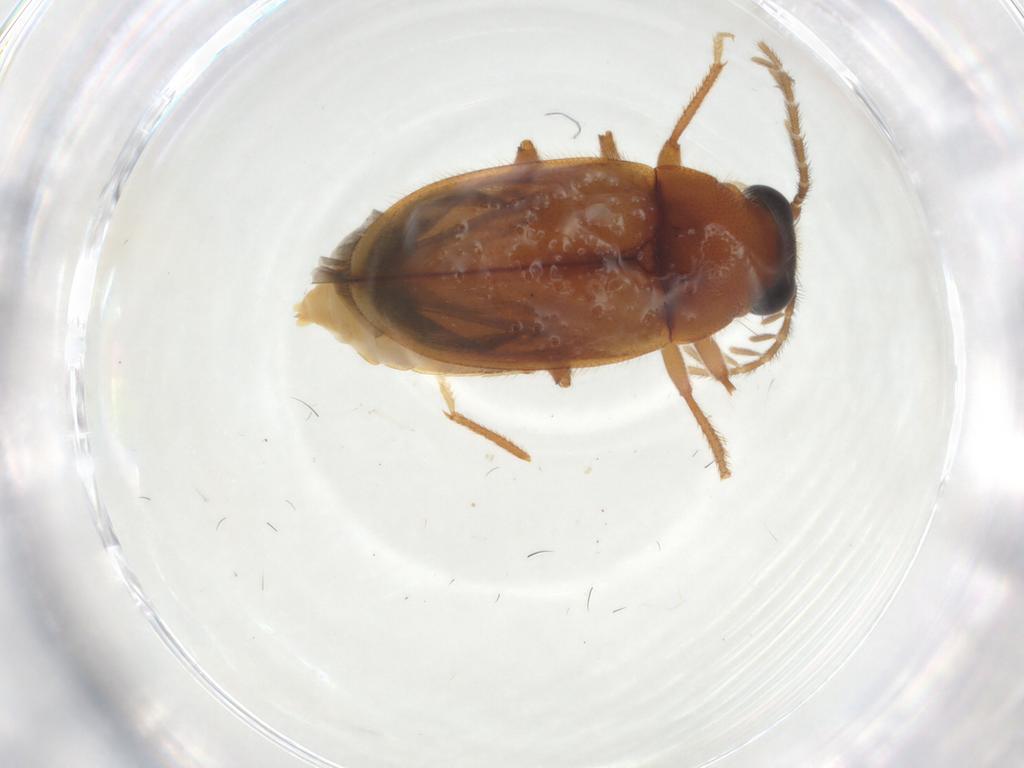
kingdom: Animalia
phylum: Arthropoda
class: Insecta
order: Coleoptera
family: Ptilodactylidae
